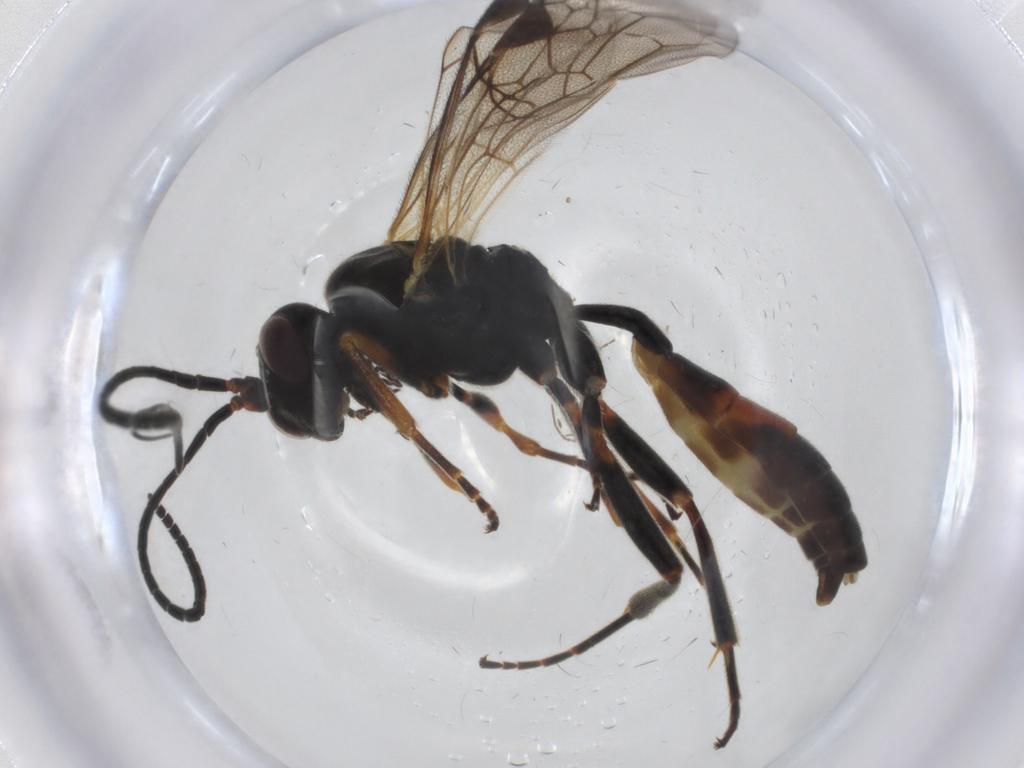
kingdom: Animalia
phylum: Arthropoda
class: Insecta
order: Hymenoptera
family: Ichneumonidae
